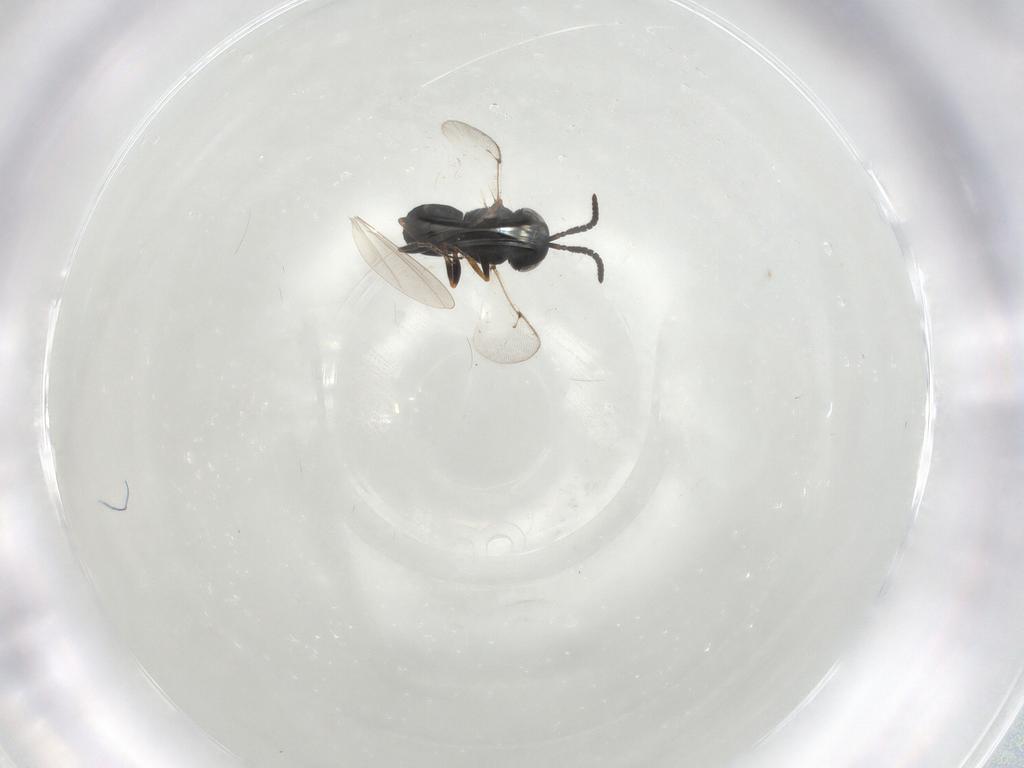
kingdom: Animalia
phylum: Arthropoda
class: Insecta
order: Hymenoptera
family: Scelionidae
